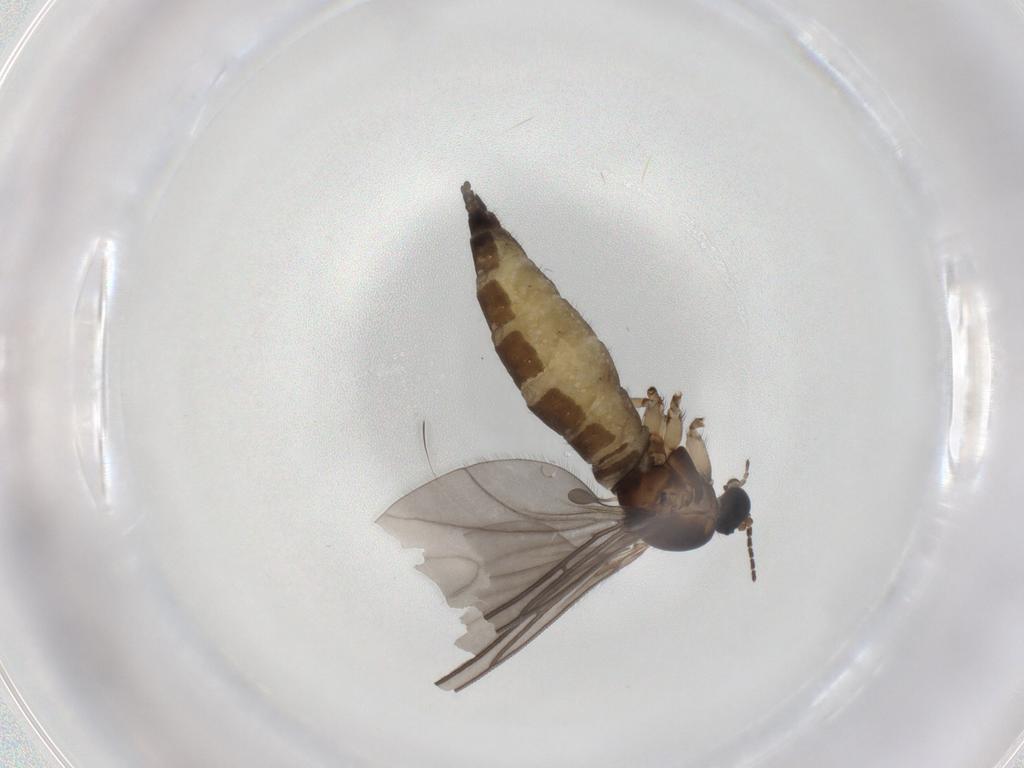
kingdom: Animalia
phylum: Arthropoda
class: Insecta
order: Diptera
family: Sciaridae
